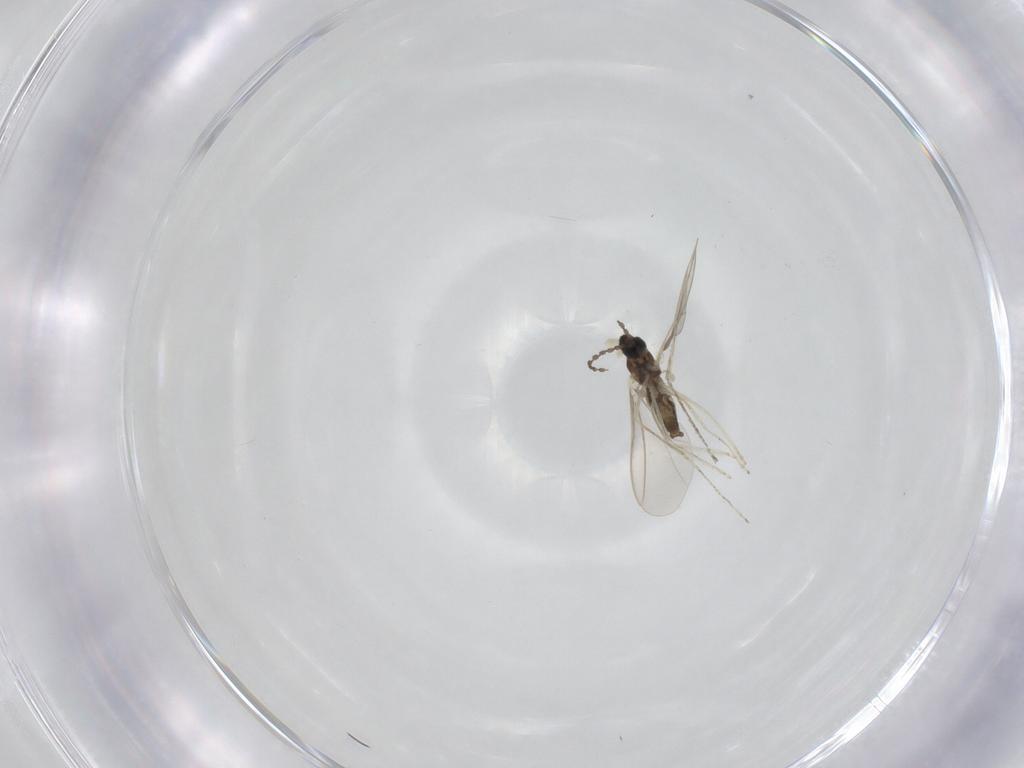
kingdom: Animalia
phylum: Arthropoda
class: Insecta
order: Diptera
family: Cecidomyiidae
